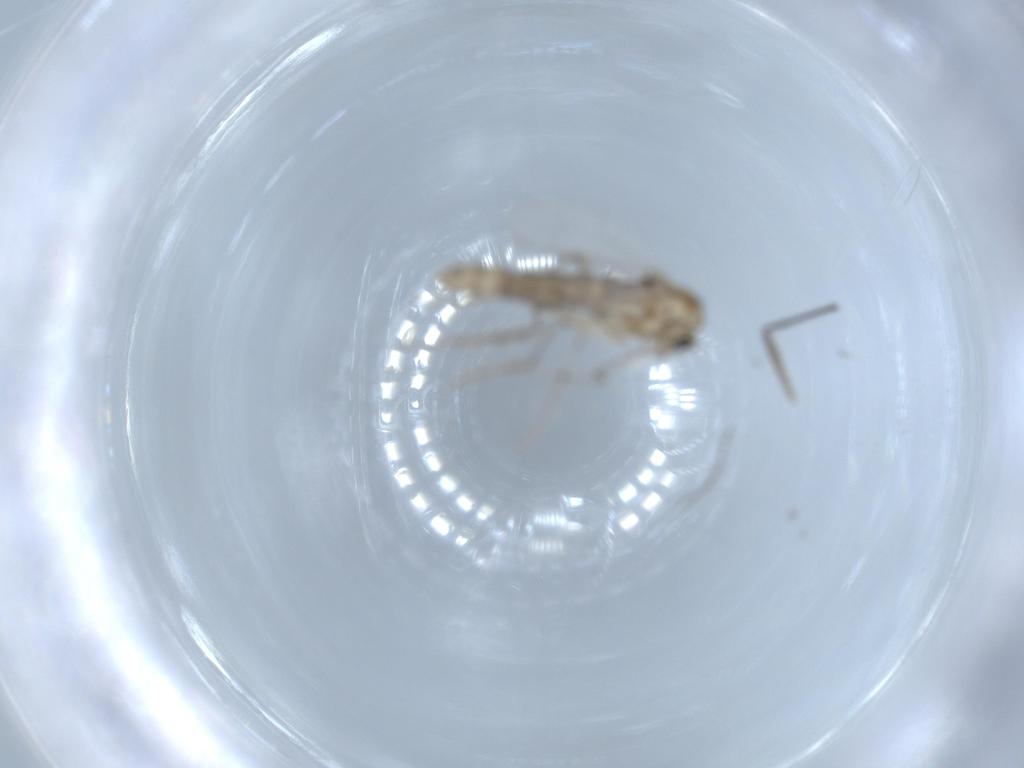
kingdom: Animalia
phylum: Arthropoda
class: Insecta
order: Diptera
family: Chironomidae
